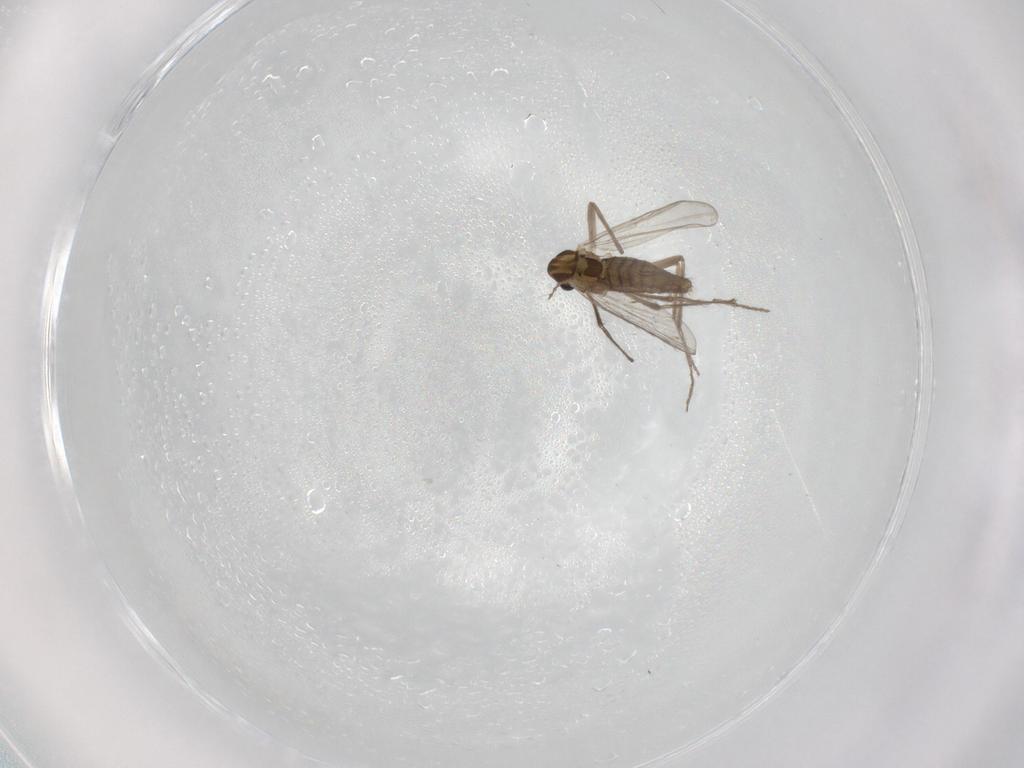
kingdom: Animalia
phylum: Arthropoda
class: Insecta
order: Diptera
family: Chironomidae
